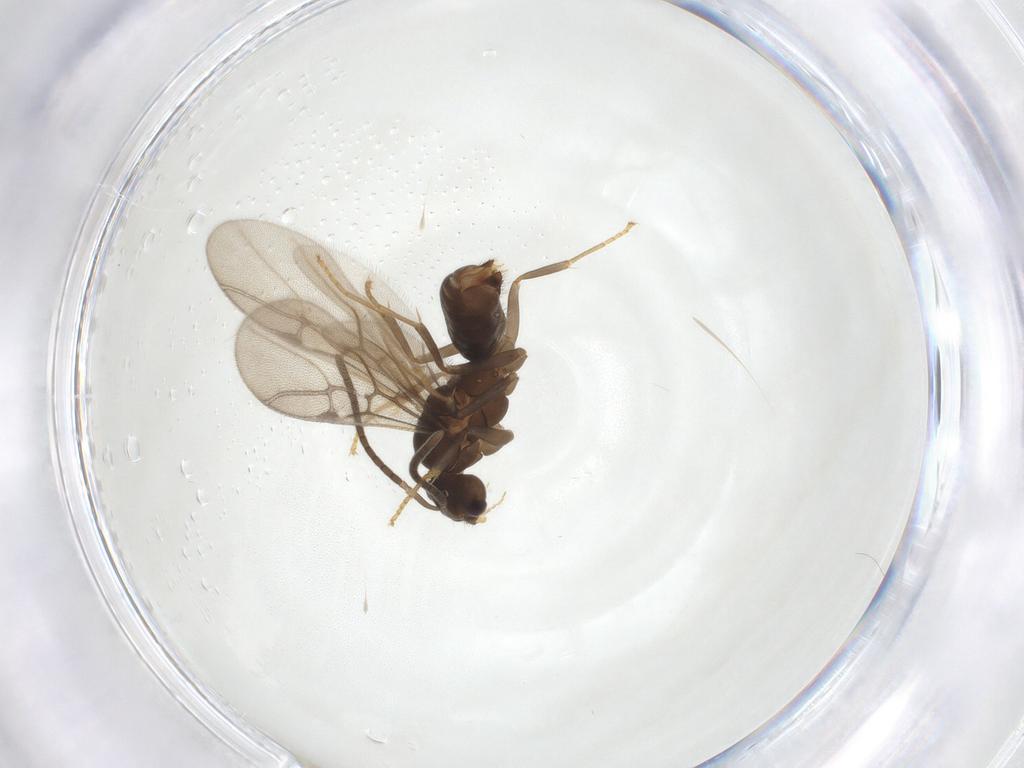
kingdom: Animalia
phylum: Arthropoda
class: Insecta
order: Hymenoptera
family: Formicidae
